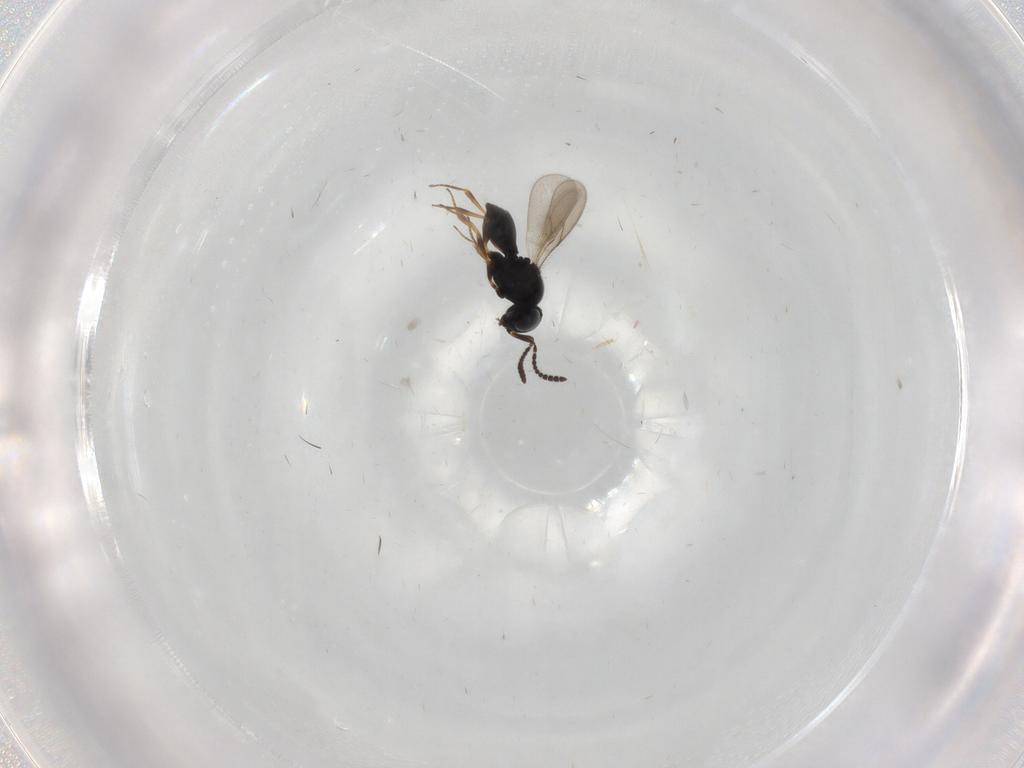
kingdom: Animalia
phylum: Arthropoda
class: Insecta
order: Hymenoptera
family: Scelionidae
